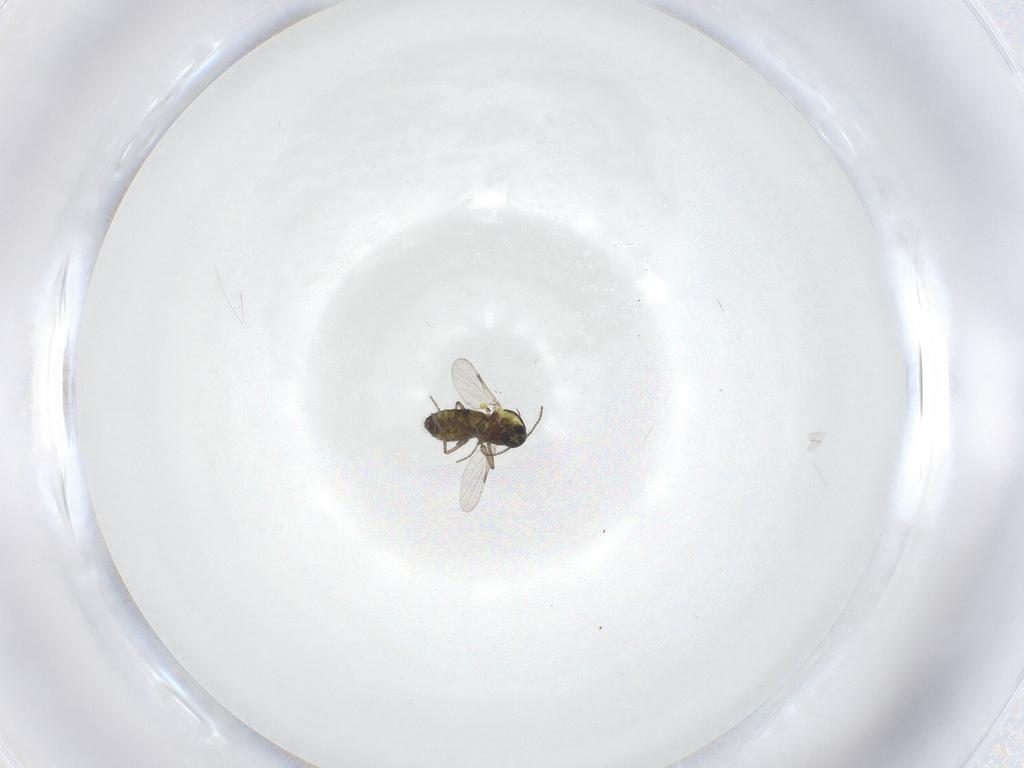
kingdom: Animalia
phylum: Arthropoda
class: Insecta
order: Diptera
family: Ceratopogonidae
